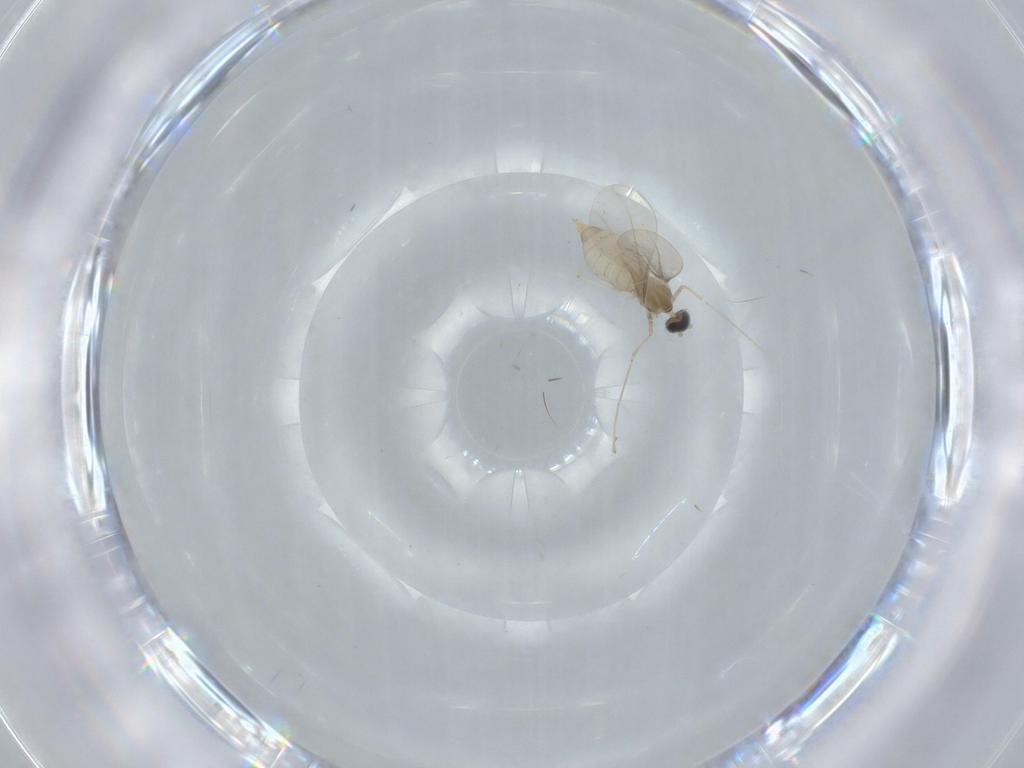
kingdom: Animalia
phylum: Arthropoda
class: Insecta
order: Diptera
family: Cecidomyiidae
